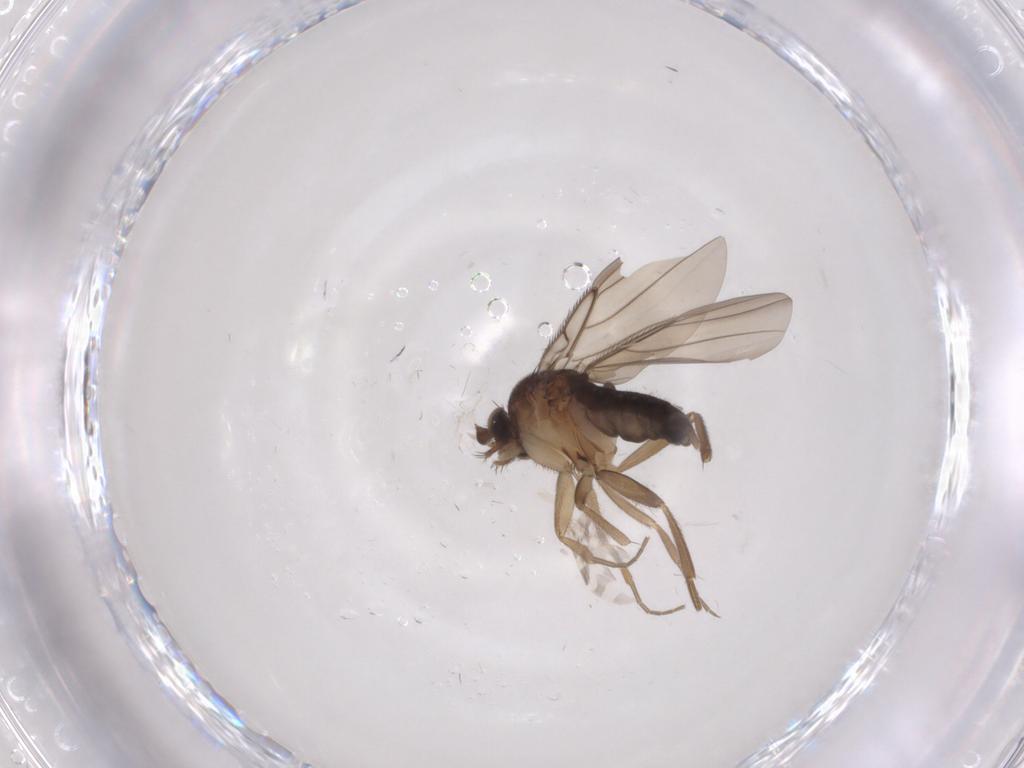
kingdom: Animalia
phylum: Arthropoda
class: Insecta
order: Diptera
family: Phoridae
